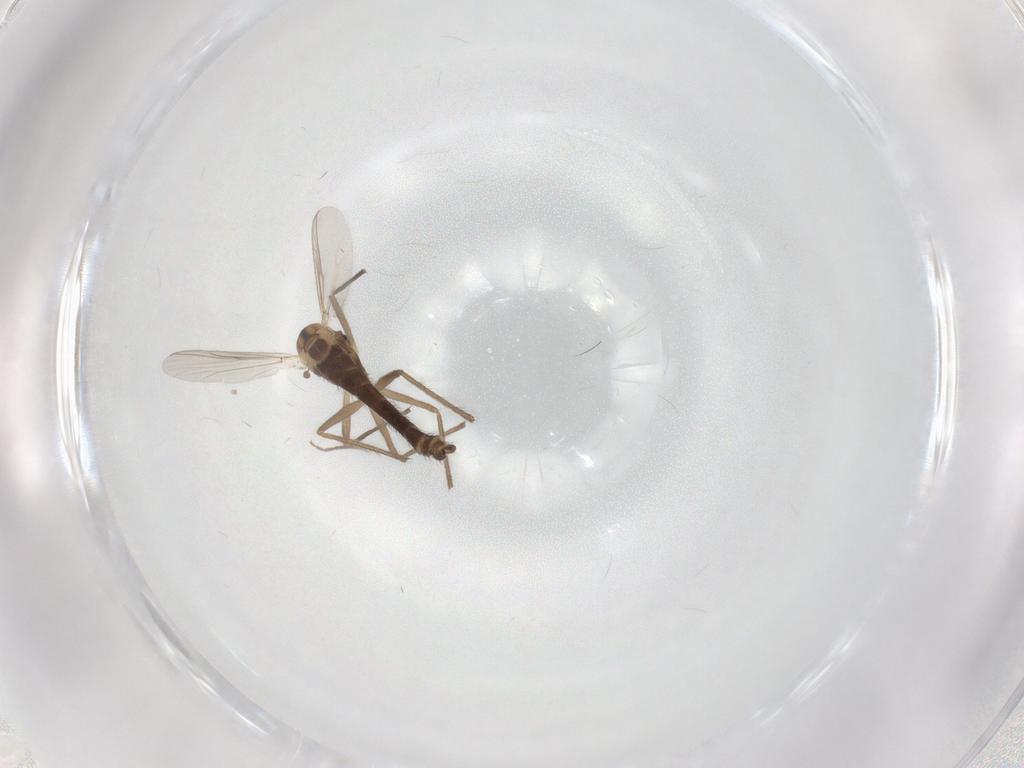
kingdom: Animalia
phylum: Arthropoda
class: Insecta
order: Diptera
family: Chironomidae
